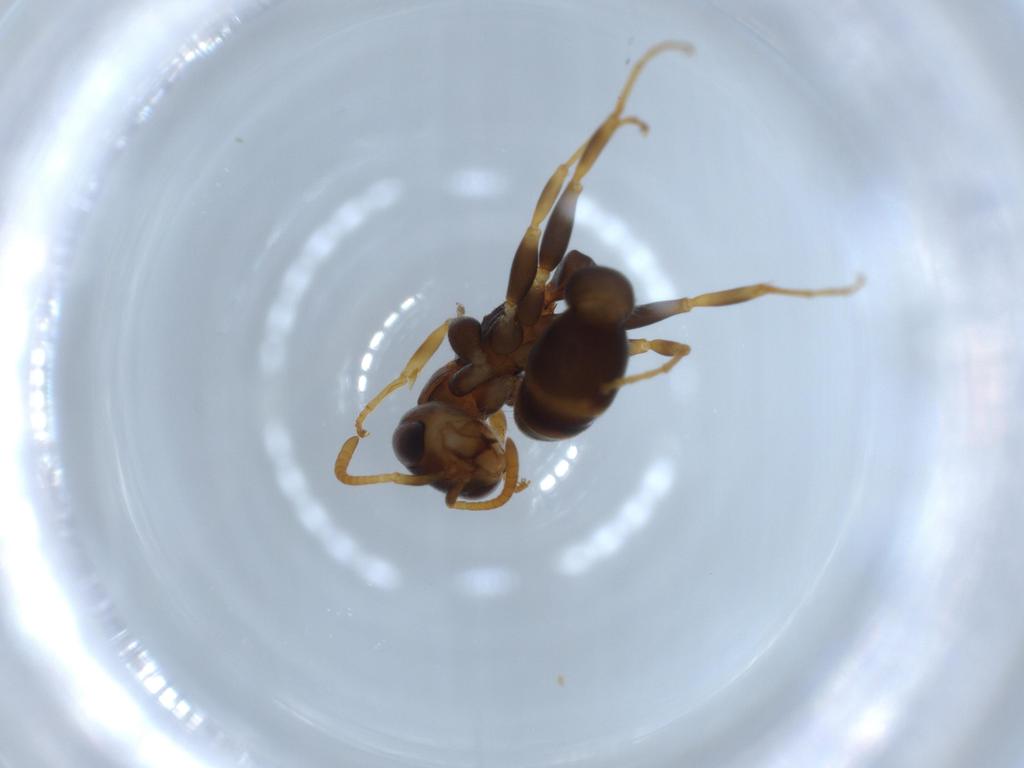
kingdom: Animalia
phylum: Arthropoda
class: Insecta
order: Hymenoptera
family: Formicidae
